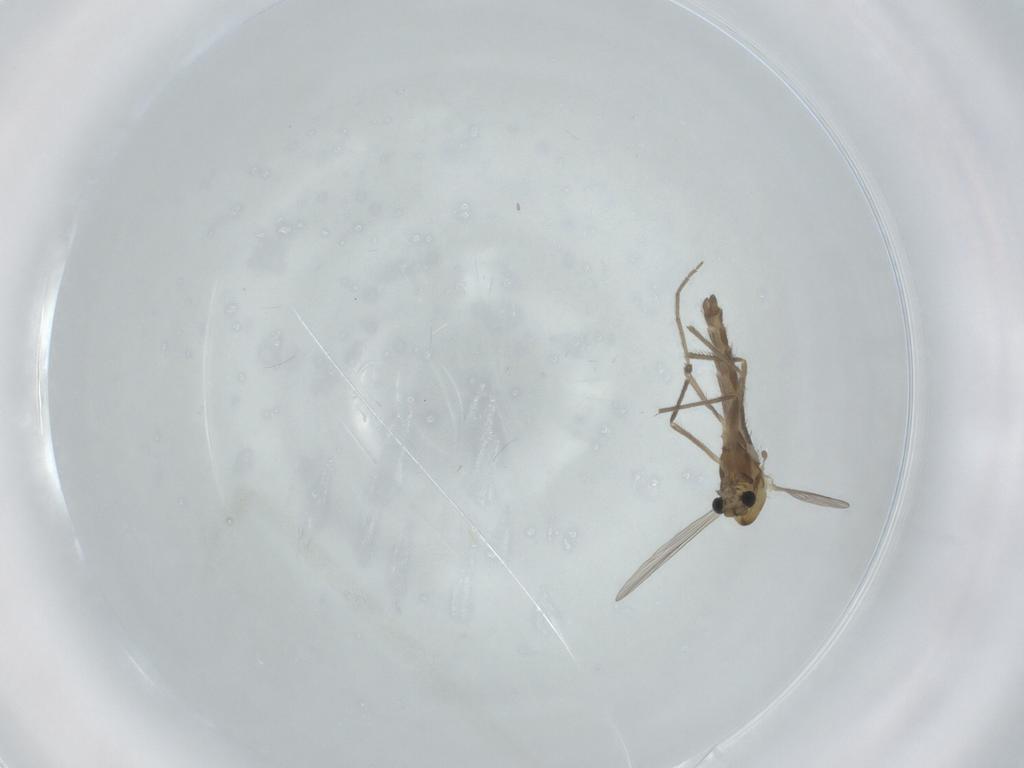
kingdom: Animalia
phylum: Arthropoda
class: Insecta
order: Diptera
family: Chironomidae
